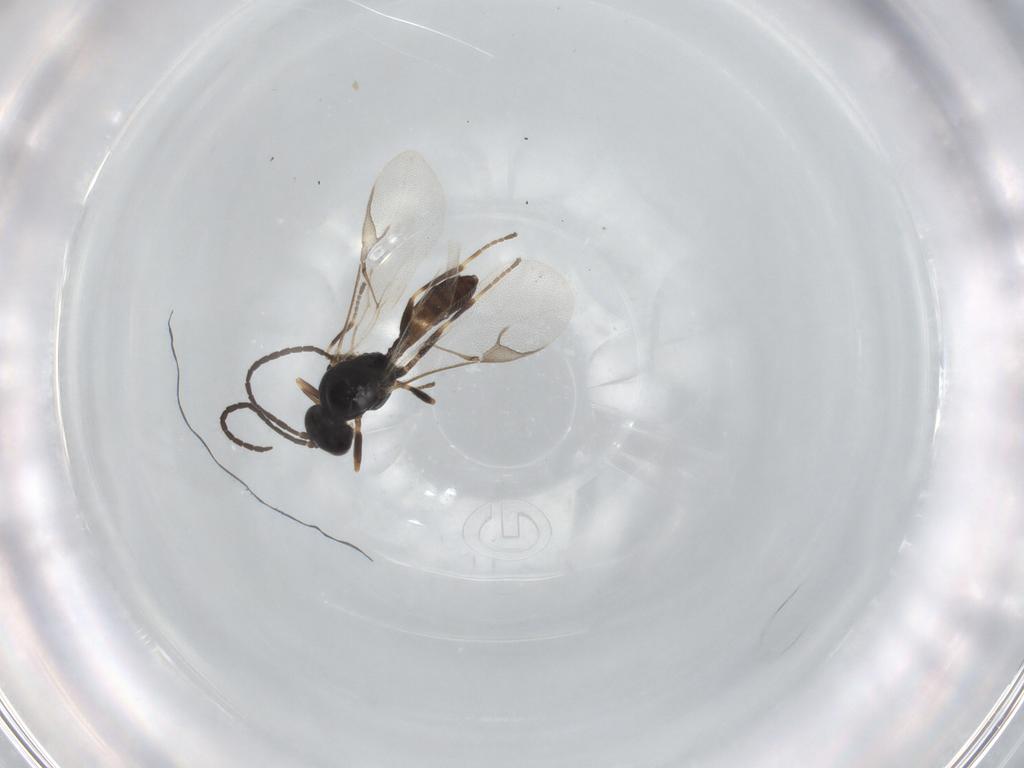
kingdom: Animalia
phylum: Arthropoda
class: Insecta
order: Hymenoptera
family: Braconidae
